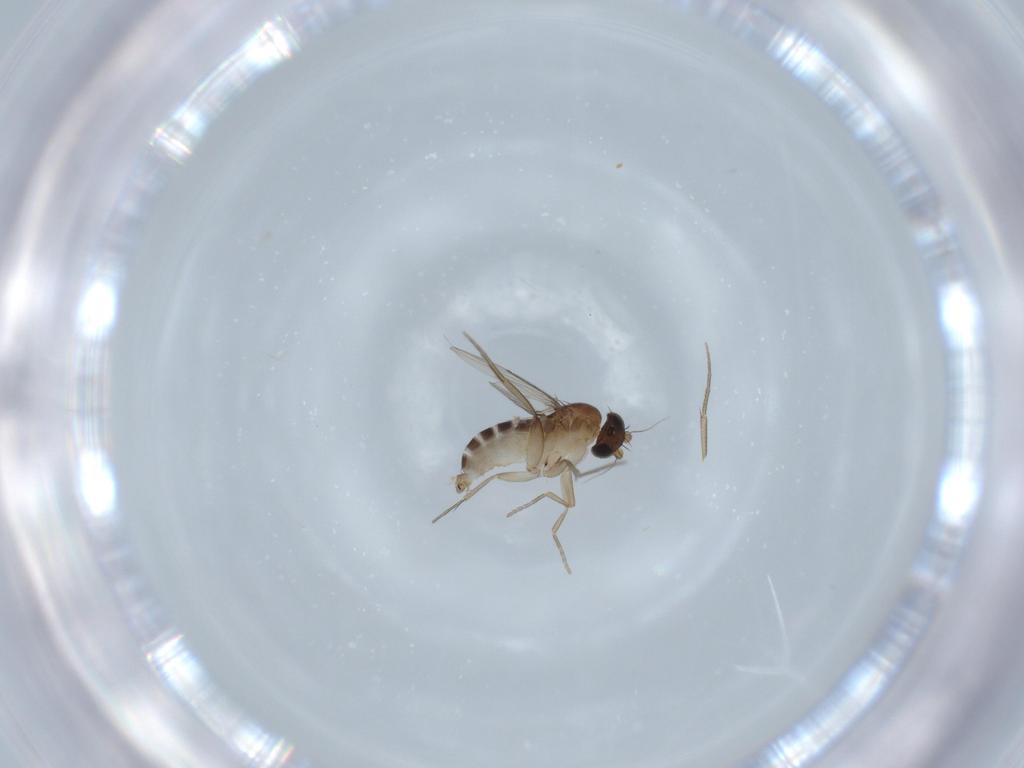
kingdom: Animalia
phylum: Arthropoda
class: Insecta
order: Diptera
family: Phoridae
